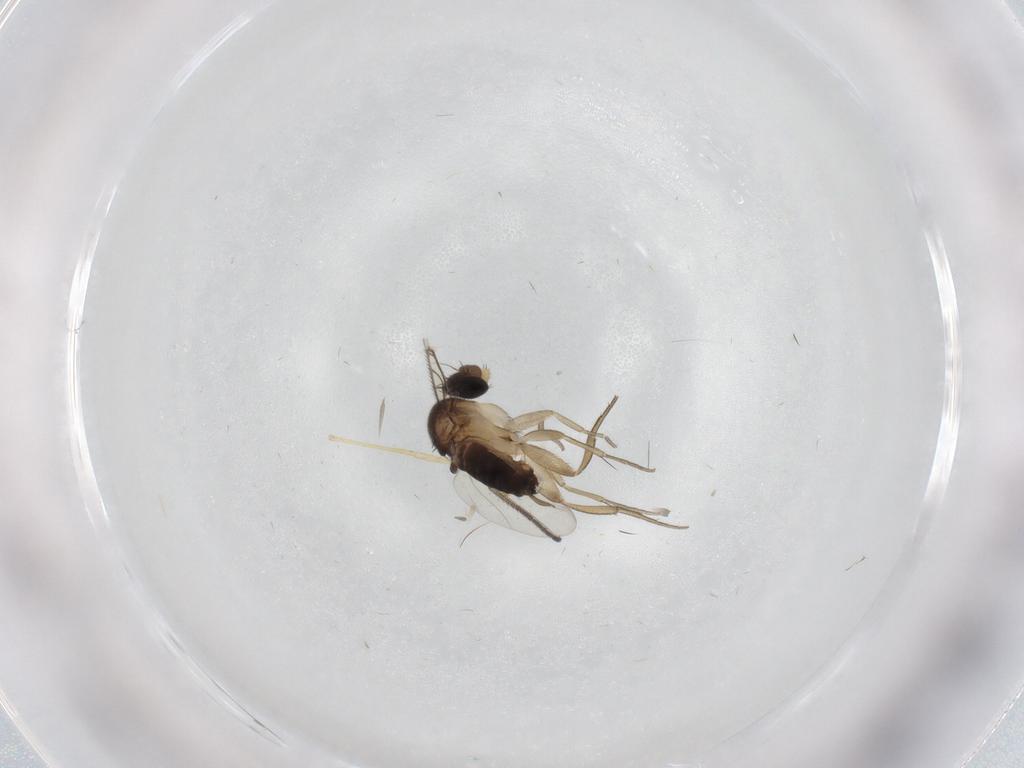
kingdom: Animalia
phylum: Arthropoda
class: Insecta
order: Diptera
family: Sciaridae
